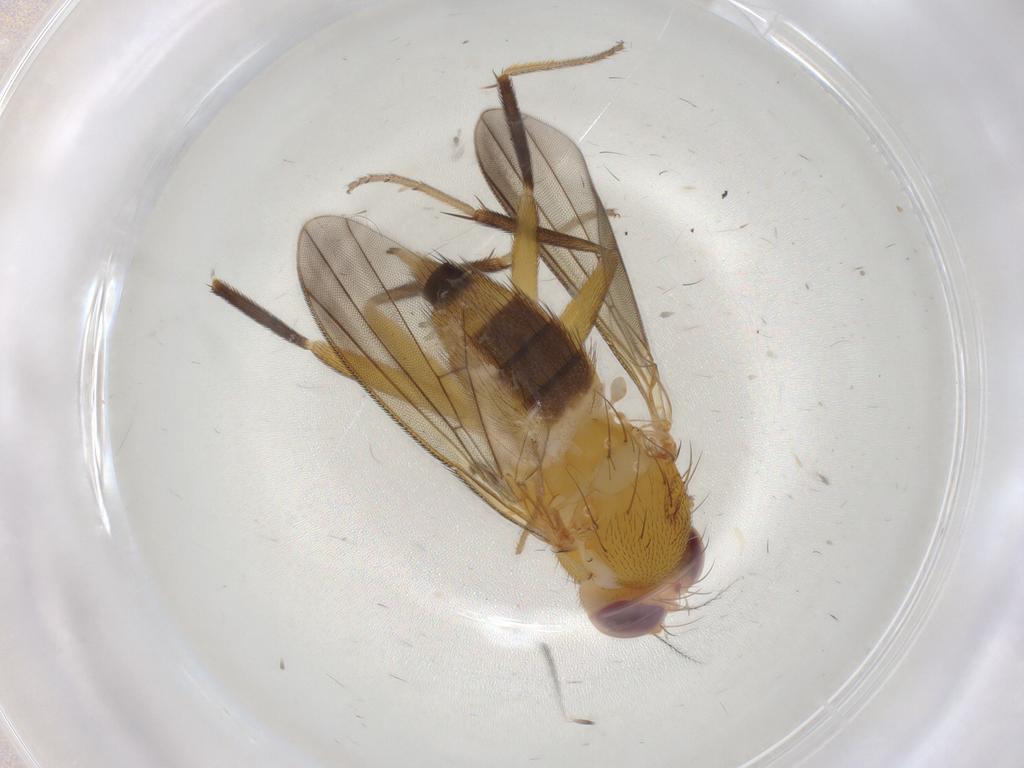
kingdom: Animalia
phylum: Arthropoda
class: Insecta
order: Diptera
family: Clusiidae
